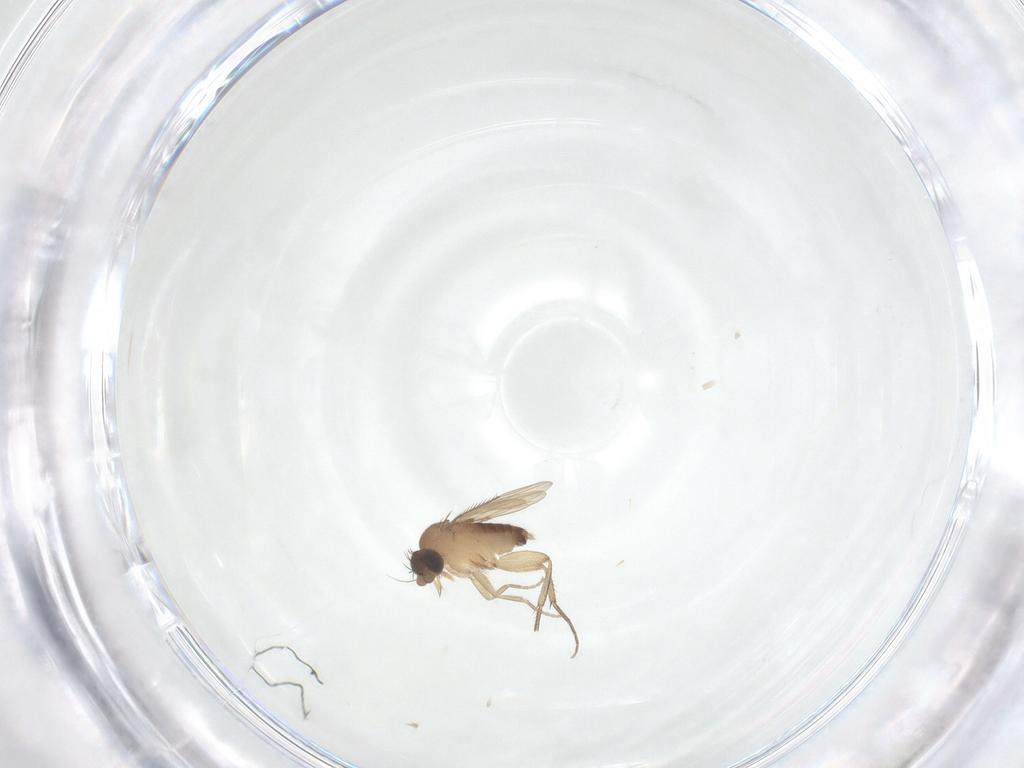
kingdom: Animalia
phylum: Arthropoda
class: Insecta
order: Diptera
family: Phoridae
